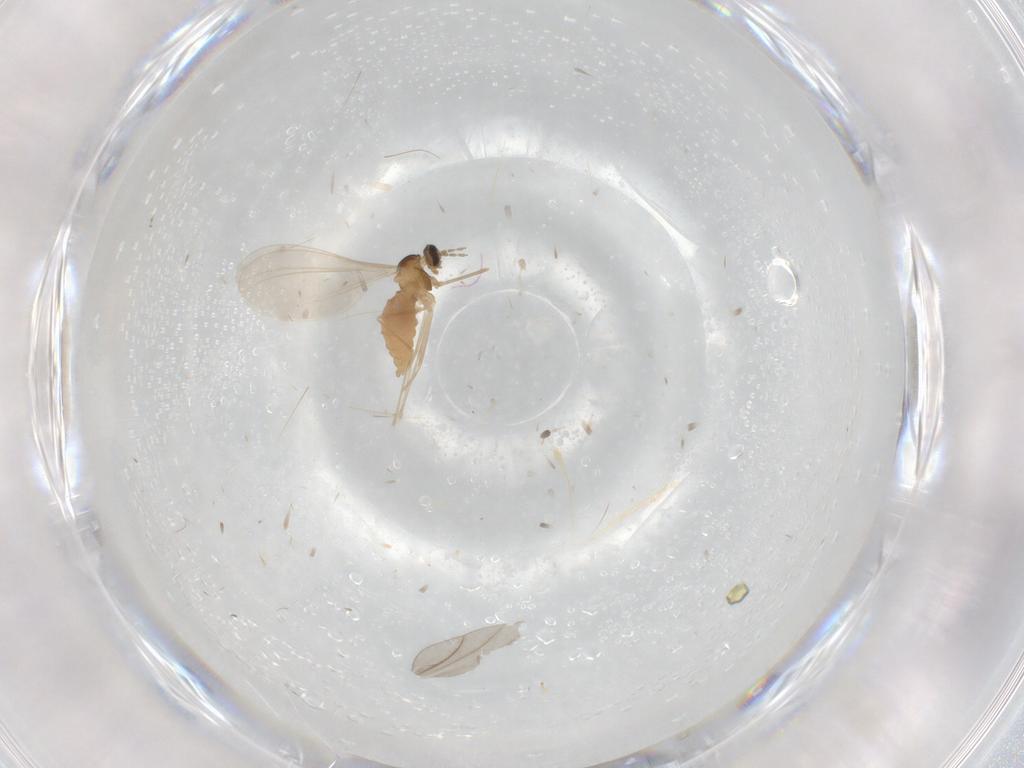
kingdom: Animalia
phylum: Arthropoda
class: Insecta
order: Diptera
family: Cecidomyiidae
